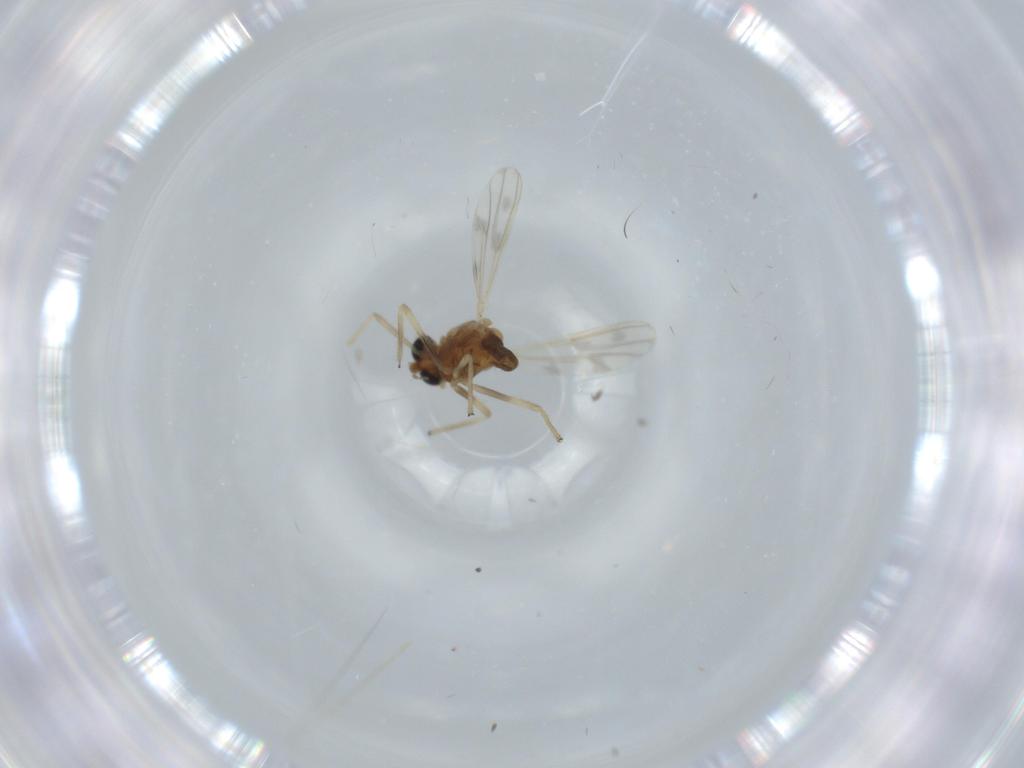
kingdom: Animalia
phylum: Arthropoda
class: Insecta
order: Diptera
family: Chironomidae
